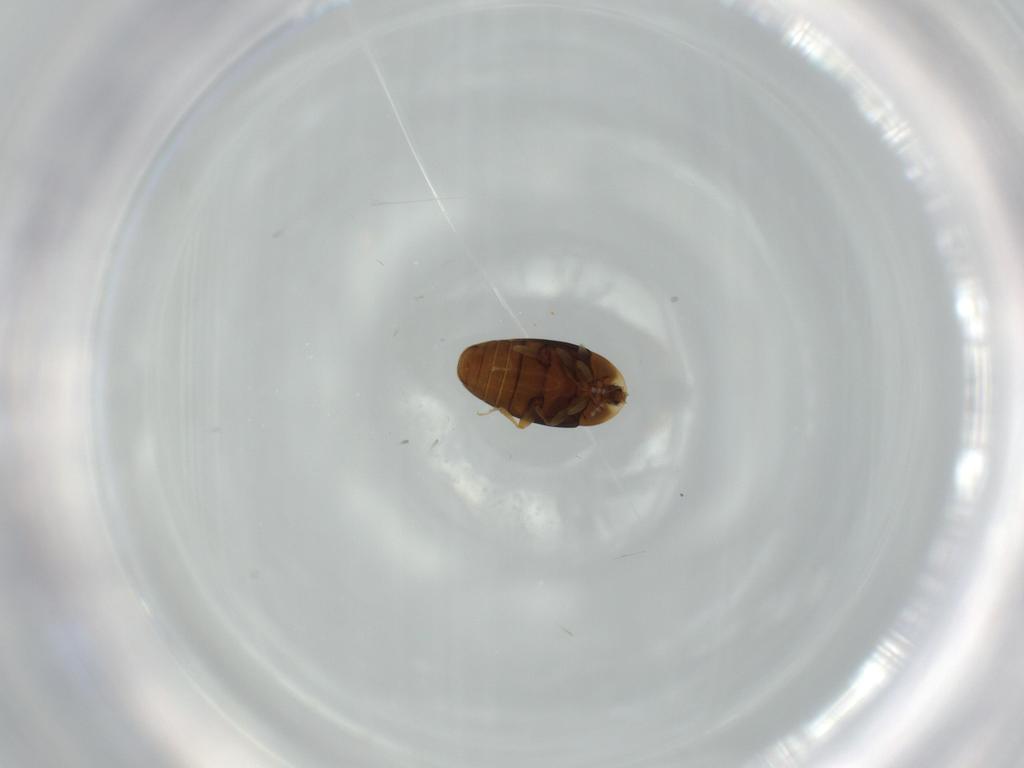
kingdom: Animalia
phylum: Arthropoda
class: Insecta
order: Coleoptera
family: Corylophidae
